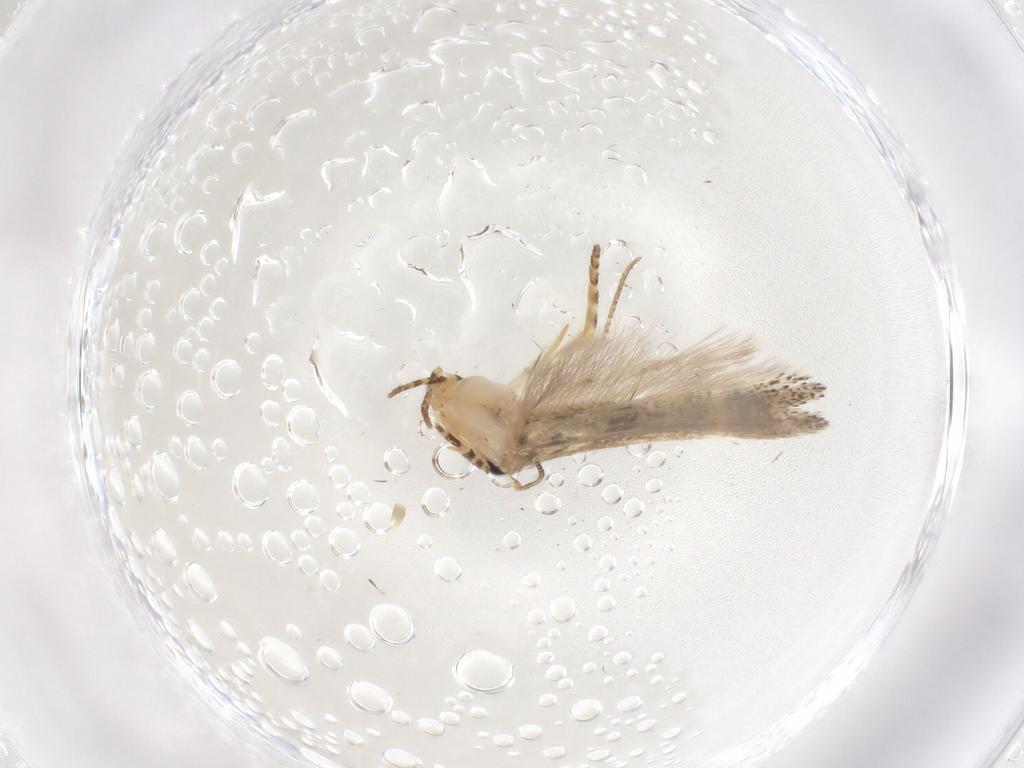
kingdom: Animalia
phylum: Arthropoda
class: Insecta
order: Lepidoptera
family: Gelechiidae
